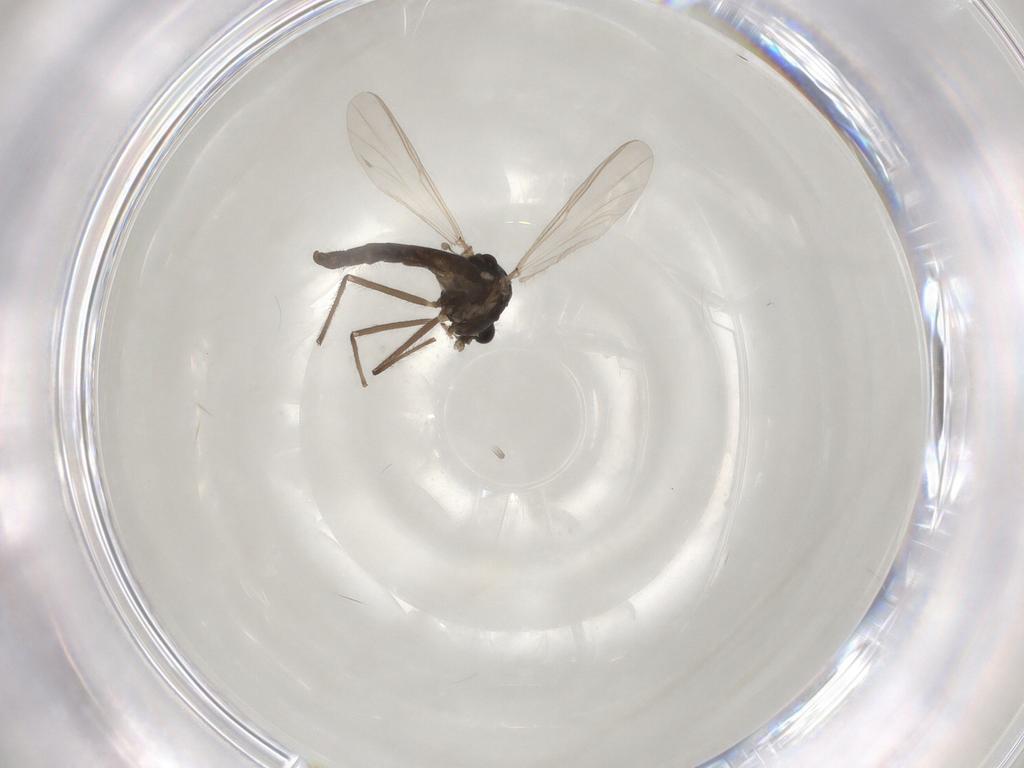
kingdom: Animalia
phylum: Arthropoda
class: Insecta
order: Diptera
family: Chironomidae
